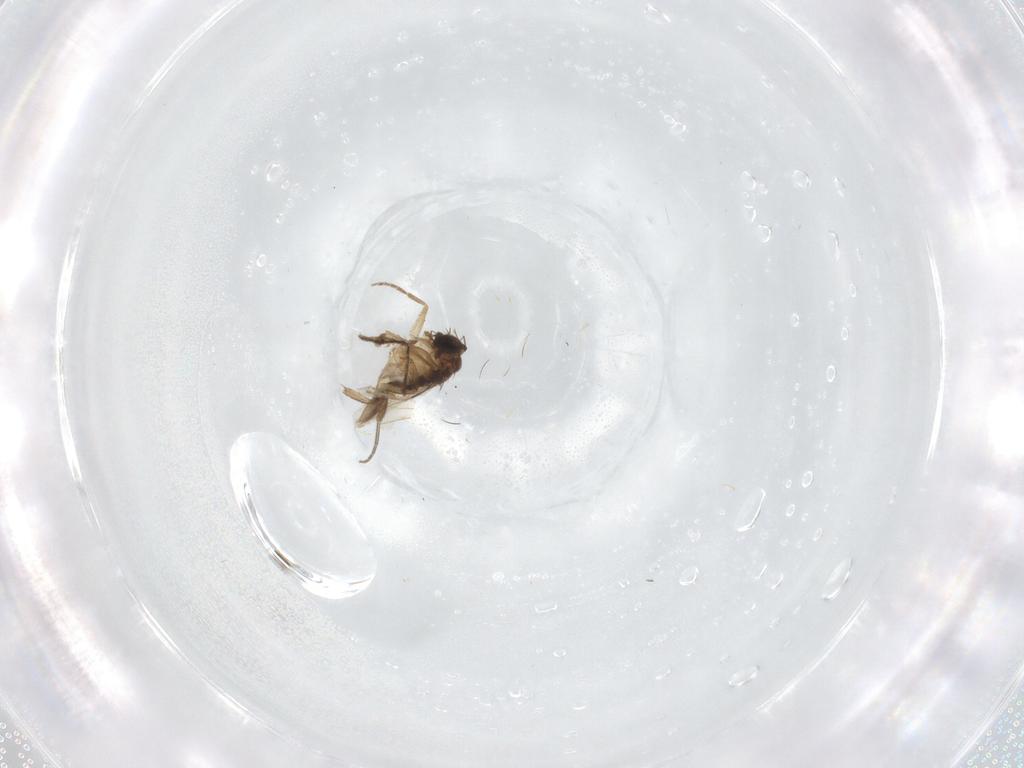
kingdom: Animalia
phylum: Arthropoda
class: Insecta
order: Diptera
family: Sciaridae
